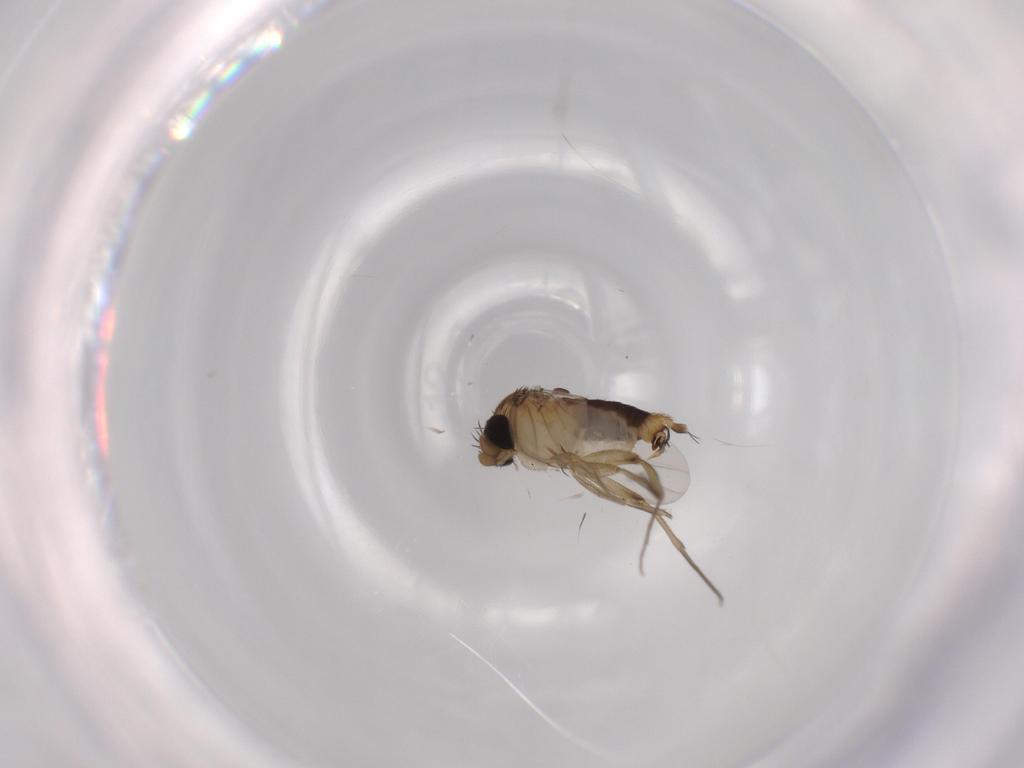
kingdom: Animalia
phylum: Arthropoda
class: Insecta
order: Diptera
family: Phoridae
